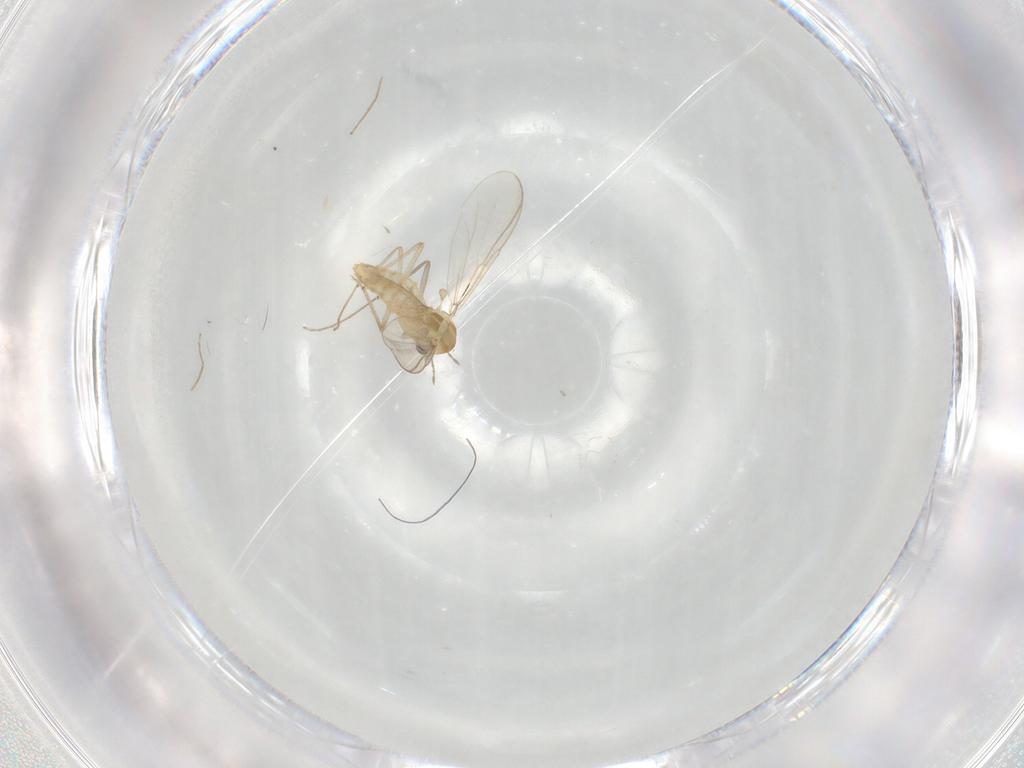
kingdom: Animalia
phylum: Arthropoda
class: Insecta
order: Diptera
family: Chironomidae
